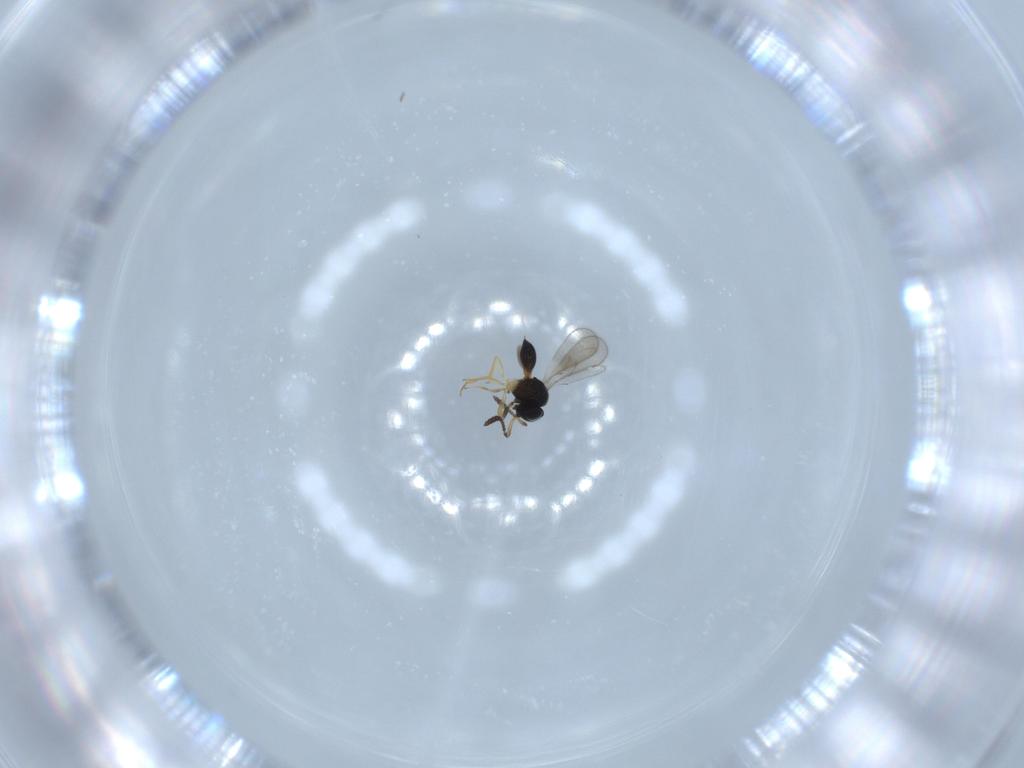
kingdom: Animalia
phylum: Arthropoda
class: Insecta
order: Hymenoptera
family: Scelionidae
